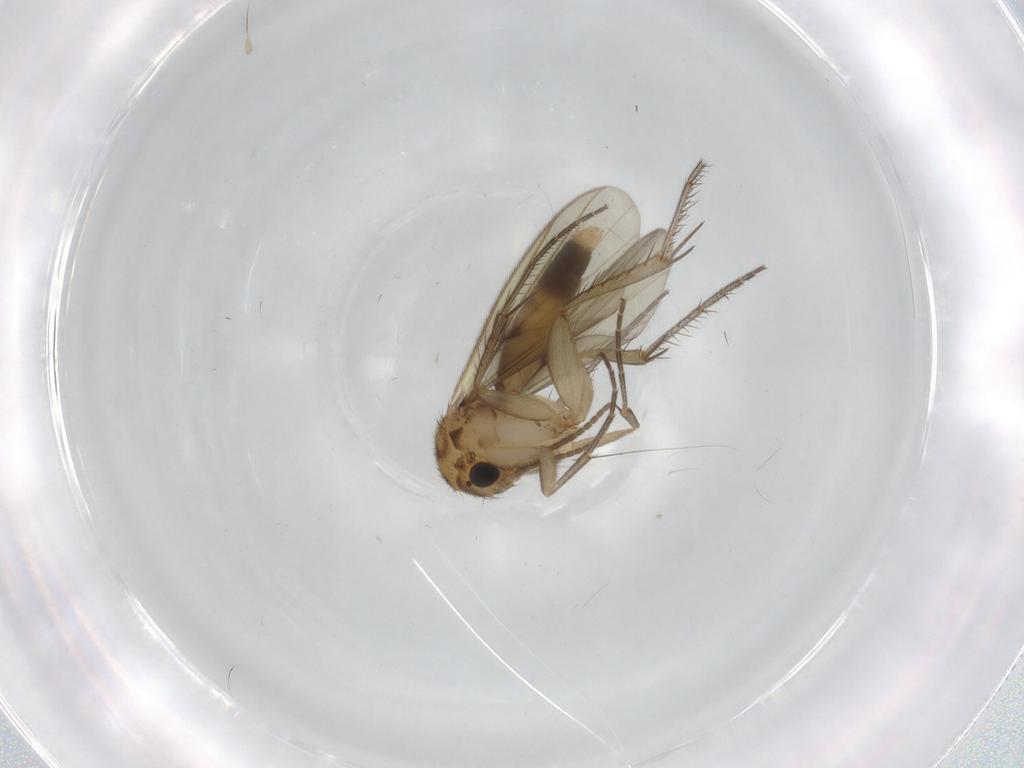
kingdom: Animalia
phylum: Arthropoda
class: Insecta
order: Diptera
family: Mycetophilidae
